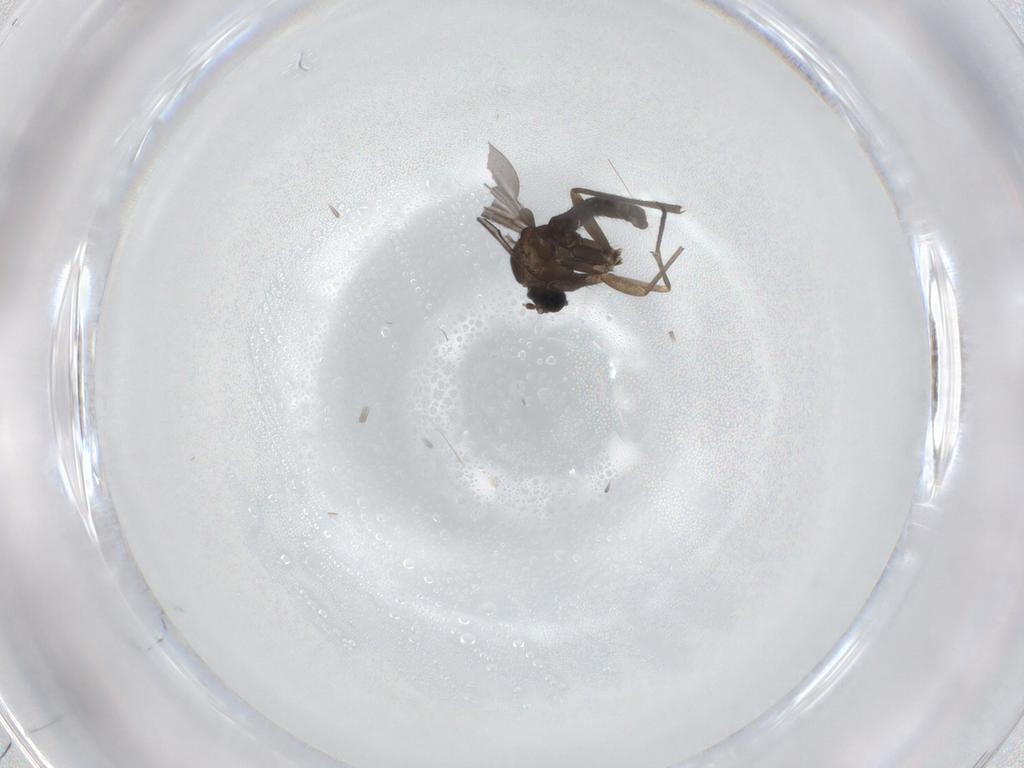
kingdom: Animalia
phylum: Arthropoda
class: Insecta
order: Diptera
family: Sciaridae
